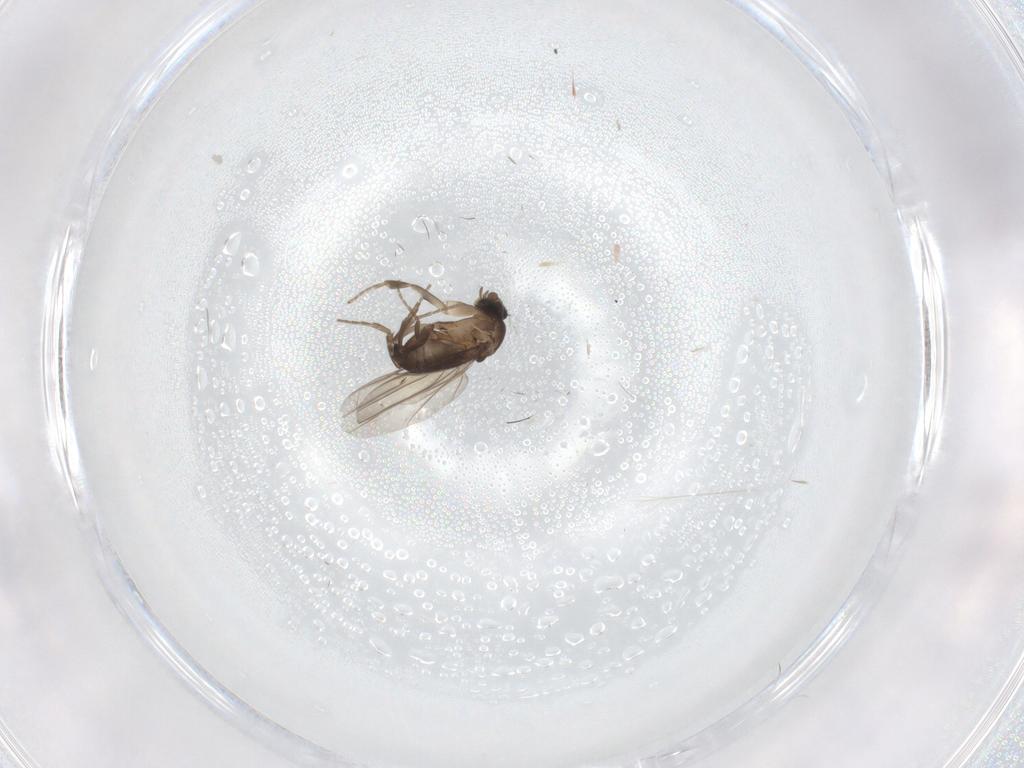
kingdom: Animalia
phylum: Arthropoda
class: Insecta
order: Diptera
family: Phoridae
